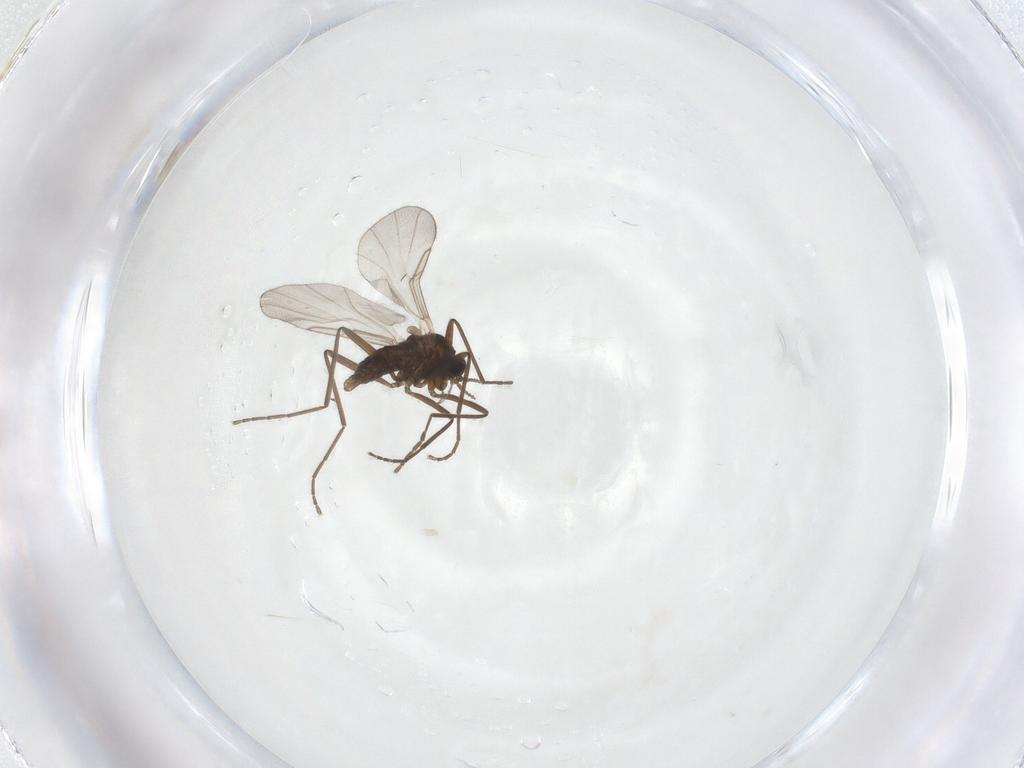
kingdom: Animalia
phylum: Arthropoda
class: Insecta
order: Diptera
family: Cecidomyiidae
